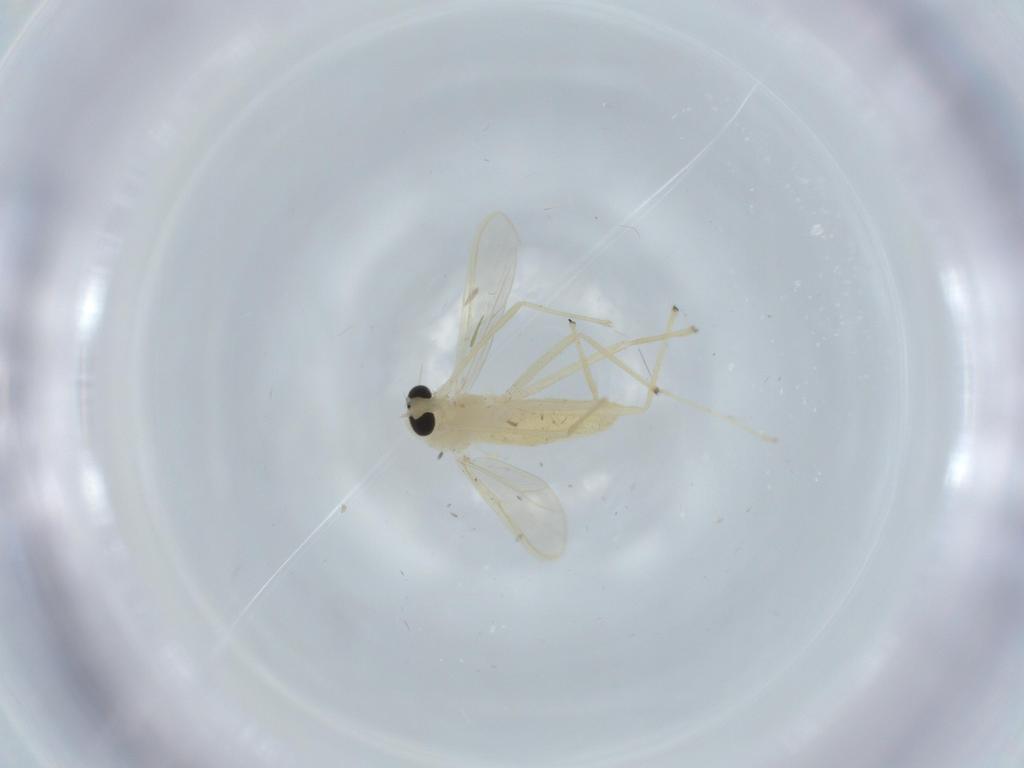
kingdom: Animalia
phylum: Arthropoda
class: Insecta
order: Diptera
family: Chironomidae
